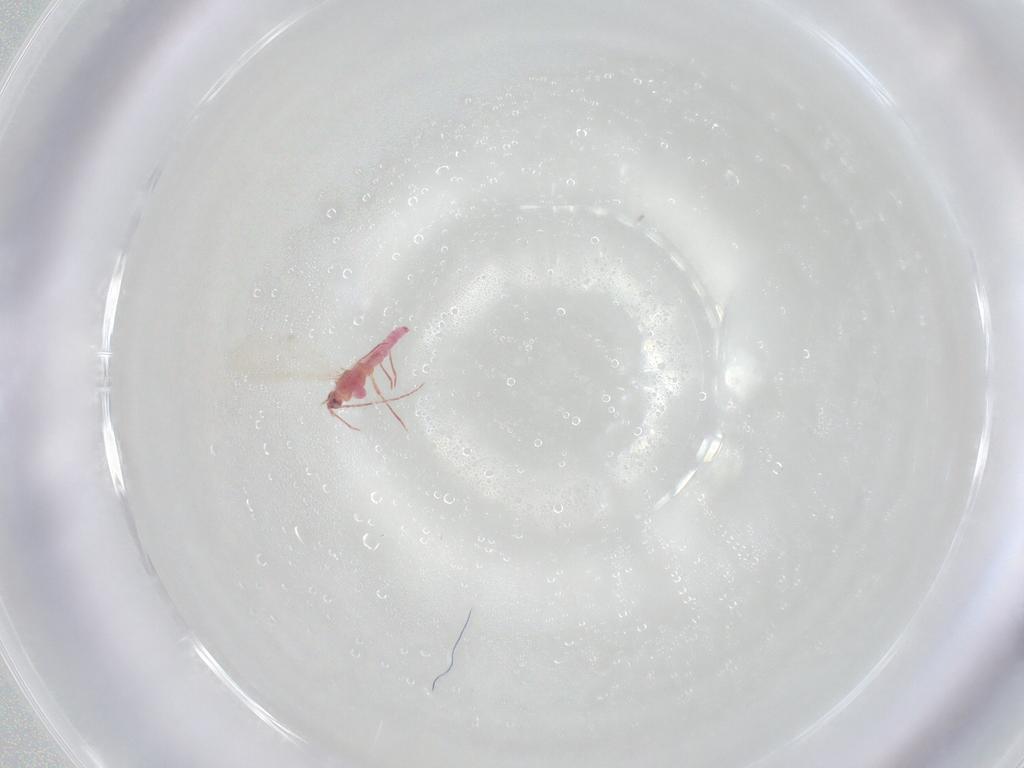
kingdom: Animalia
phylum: Arthropoda
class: Insecta
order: Hemiptera
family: Pseudococcidae
